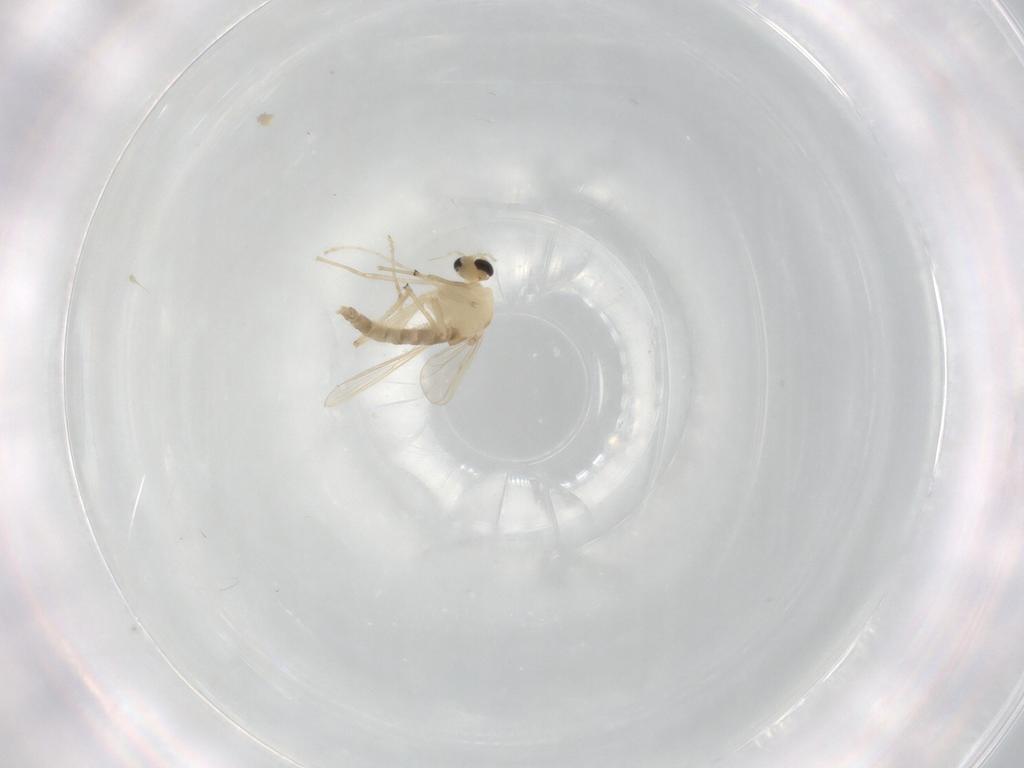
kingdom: Animalia
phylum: Arthropoda
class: Insecta
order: Diptera
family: Chironomidae
